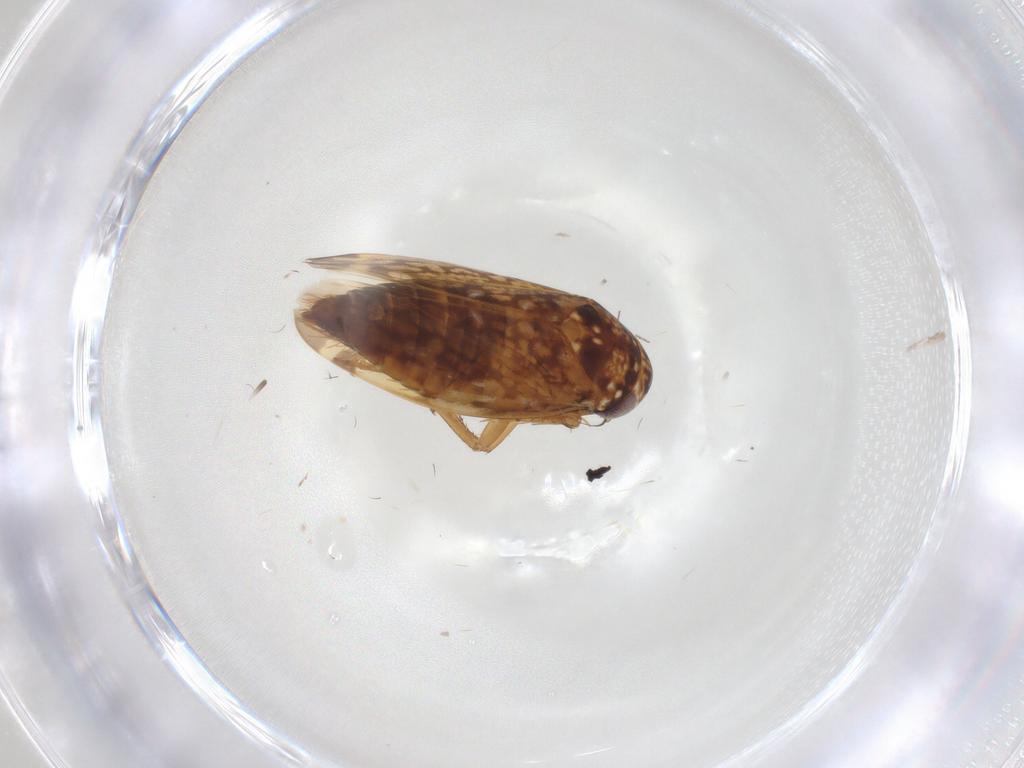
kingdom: Animalia
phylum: Arthropoda
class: Insecta
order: Hemiptera
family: Cicadellidae
